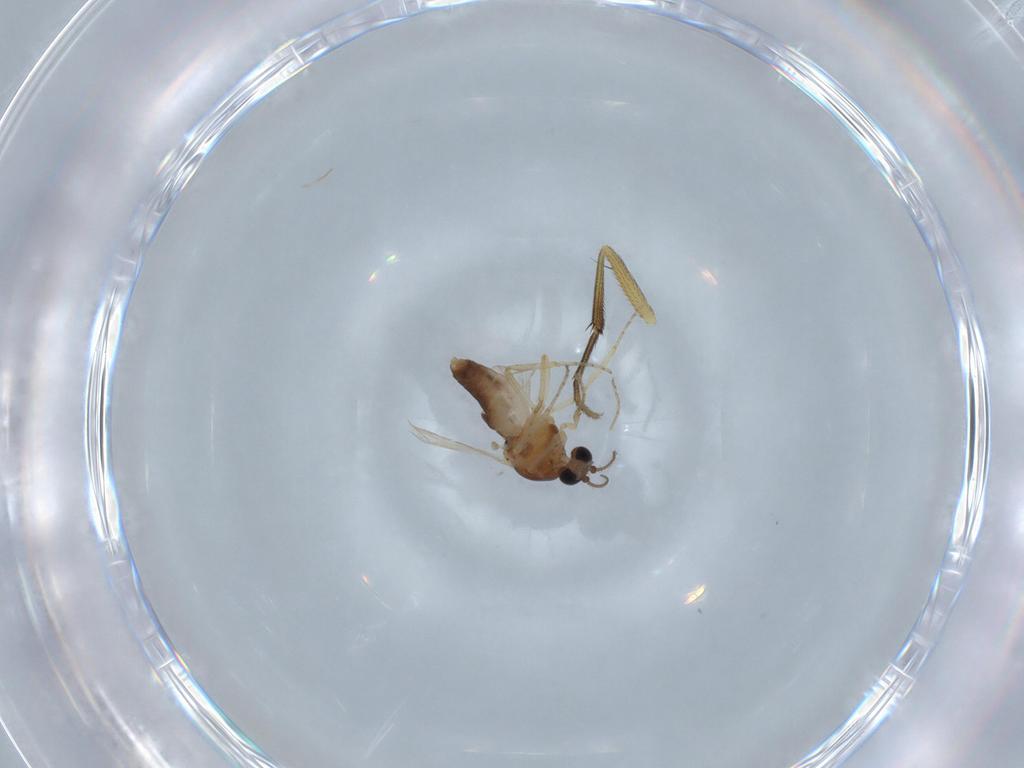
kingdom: Animalia
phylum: Arthropoda
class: Insecta
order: Diptera
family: Muscidae
